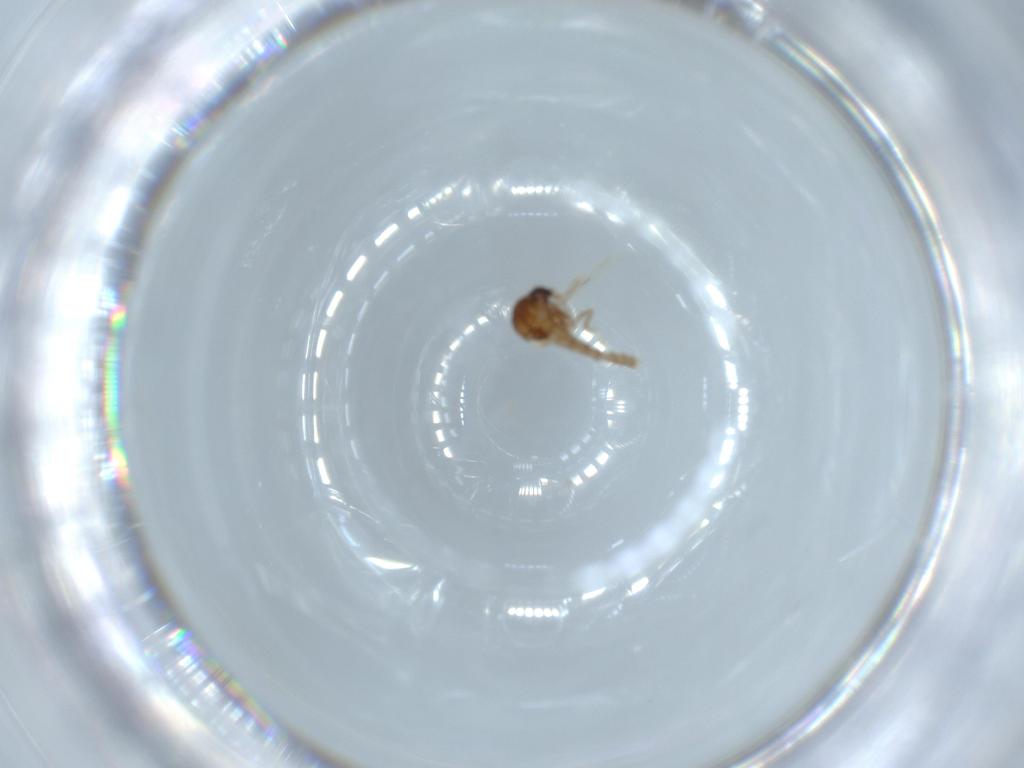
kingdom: Animalia
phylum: Arthropoda
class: Insecta
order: Diptera
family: Ceratopogonidae
